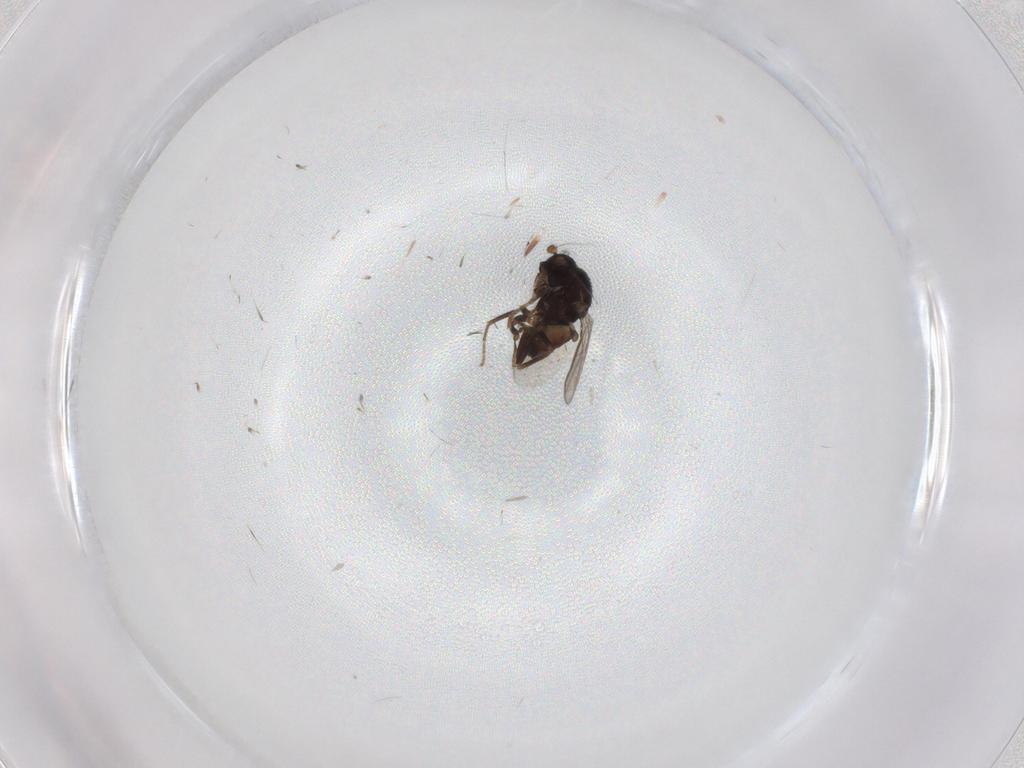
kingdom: Animalia
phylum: Arthropoda
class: Insecta
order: Diptera
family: Sphaeroceridae
